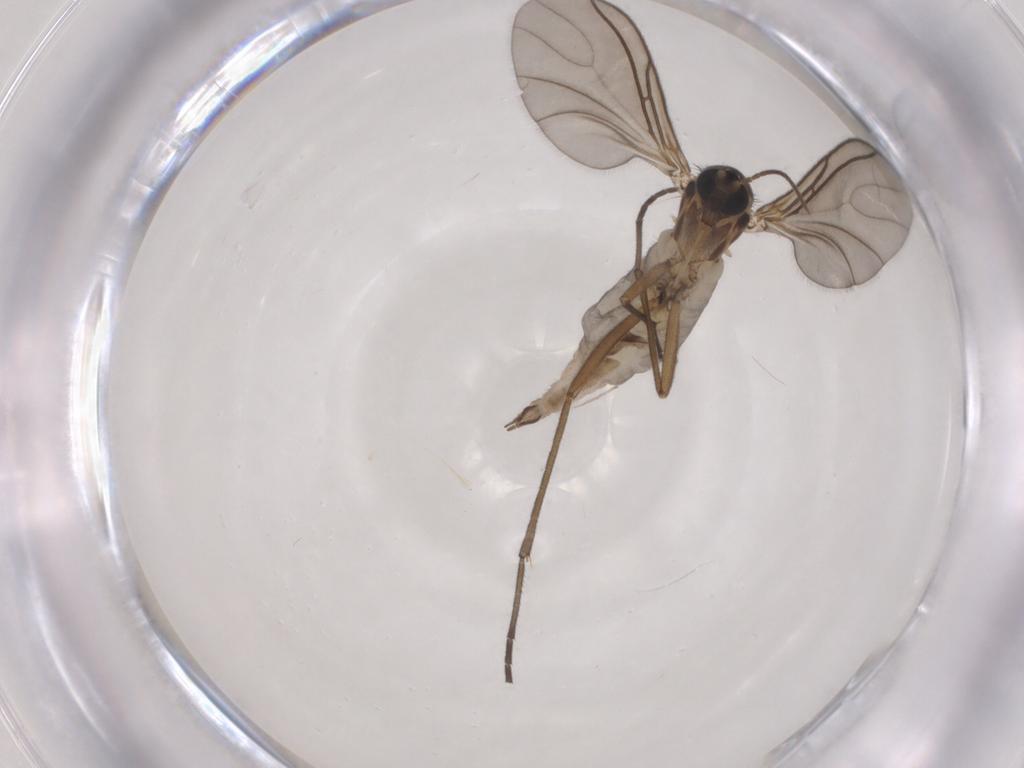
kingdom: Animalia
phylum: Arthropoda
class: Insecta
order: Diptera
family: Sciaridae
